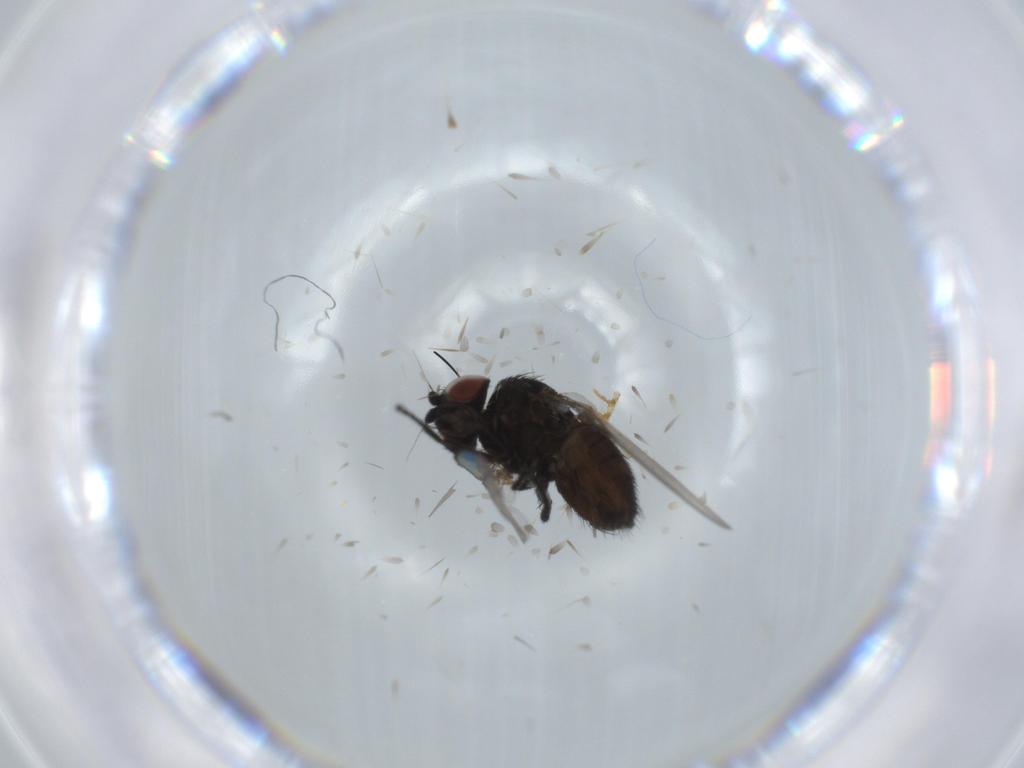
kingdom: Animalia
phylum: Arthropoda
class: Insecta
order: Diptera
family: Milichiidae
